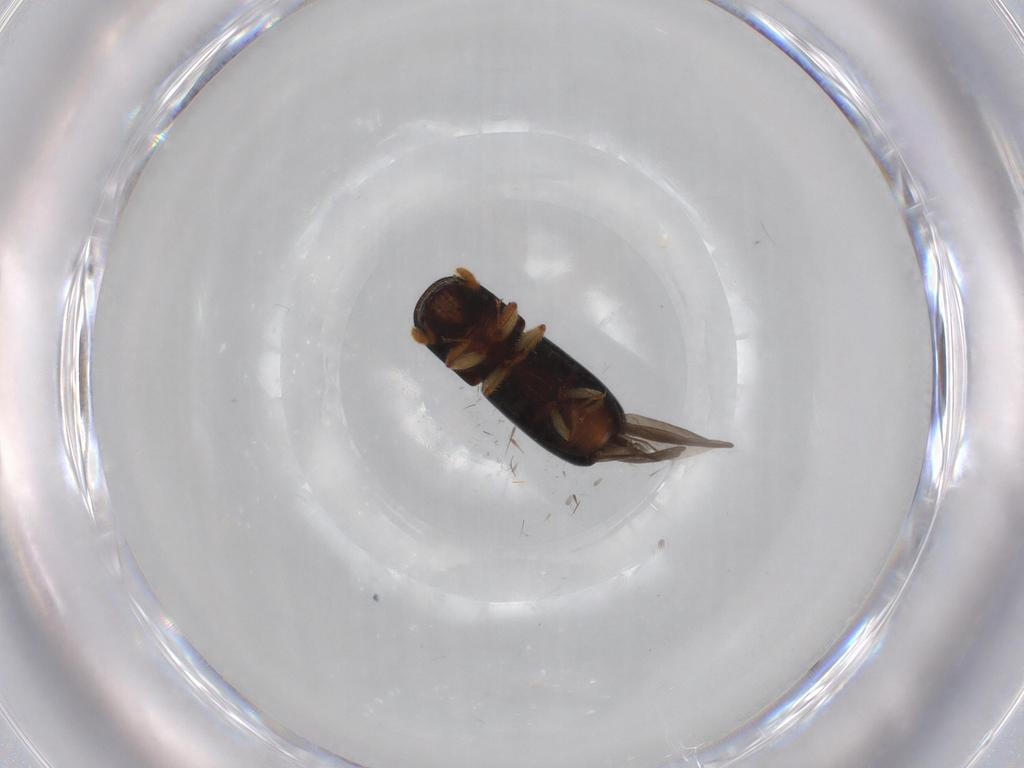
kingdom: Animalia
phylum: Arthropoda
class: Insecta
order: Coleoptera
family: Curculionidae
